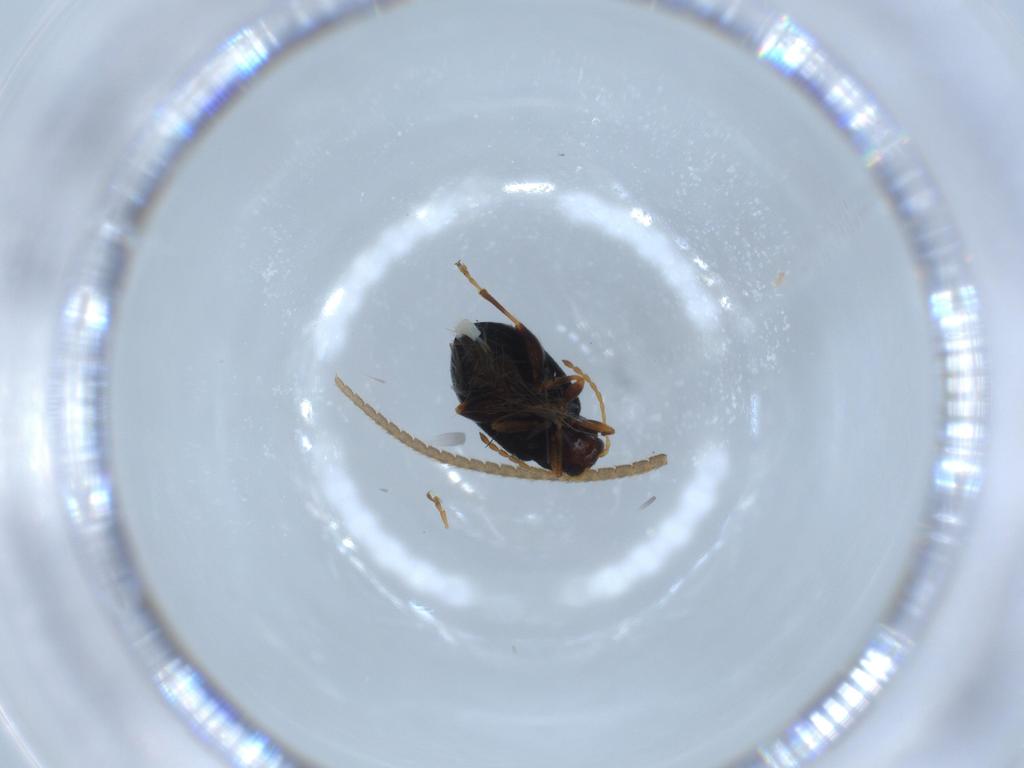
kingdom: Animalia
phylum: Arthropoda
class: Insecta
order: Coleoptera
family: Chrysomelidae
